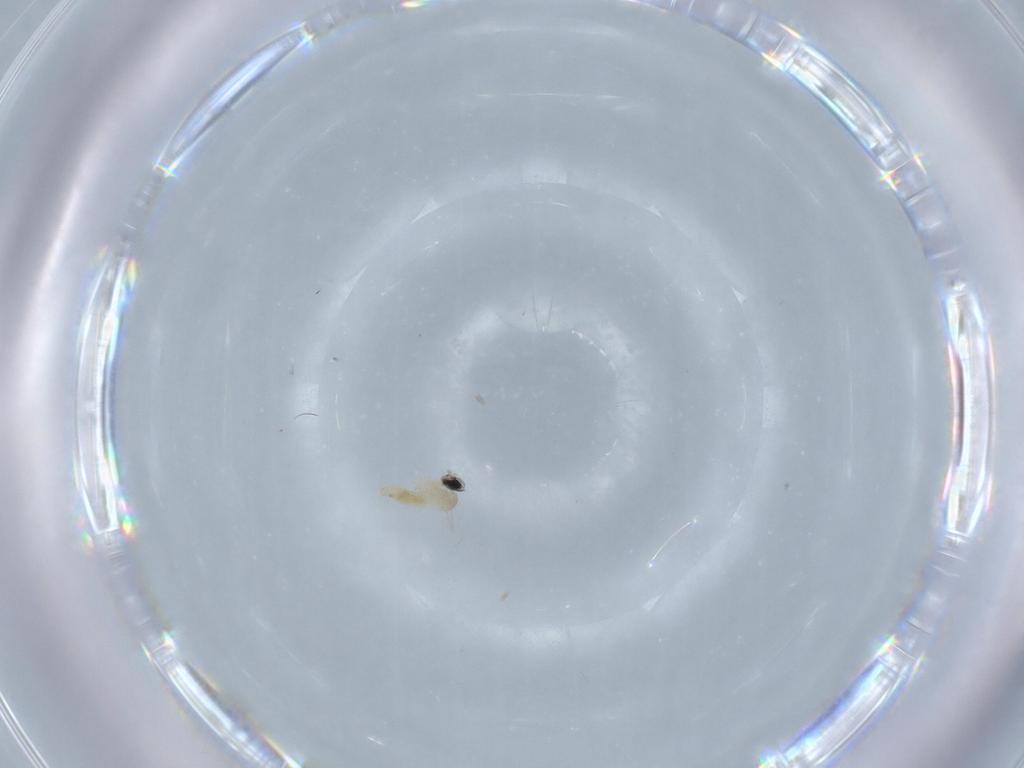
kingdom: Animalia
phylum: Arthropoda
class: Insecta
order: Diptera
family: Cecidomyiidae
